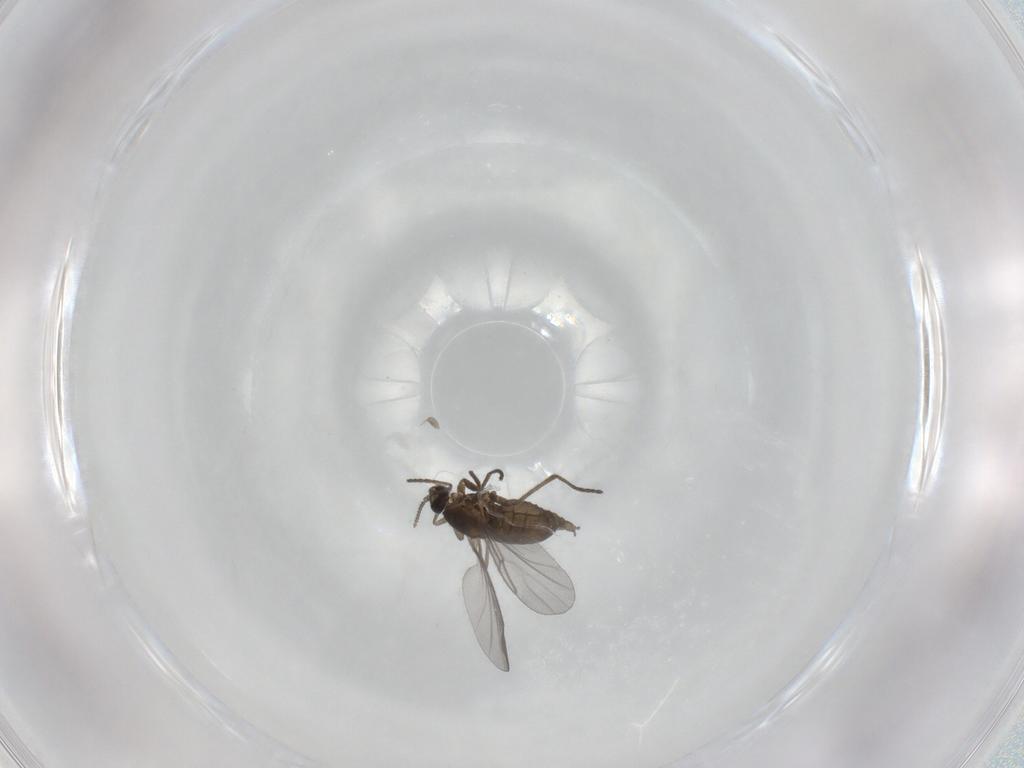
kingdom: Animalia
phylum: Arthropoda
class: Insecta
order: Diptera
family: Cecidomyiidae
